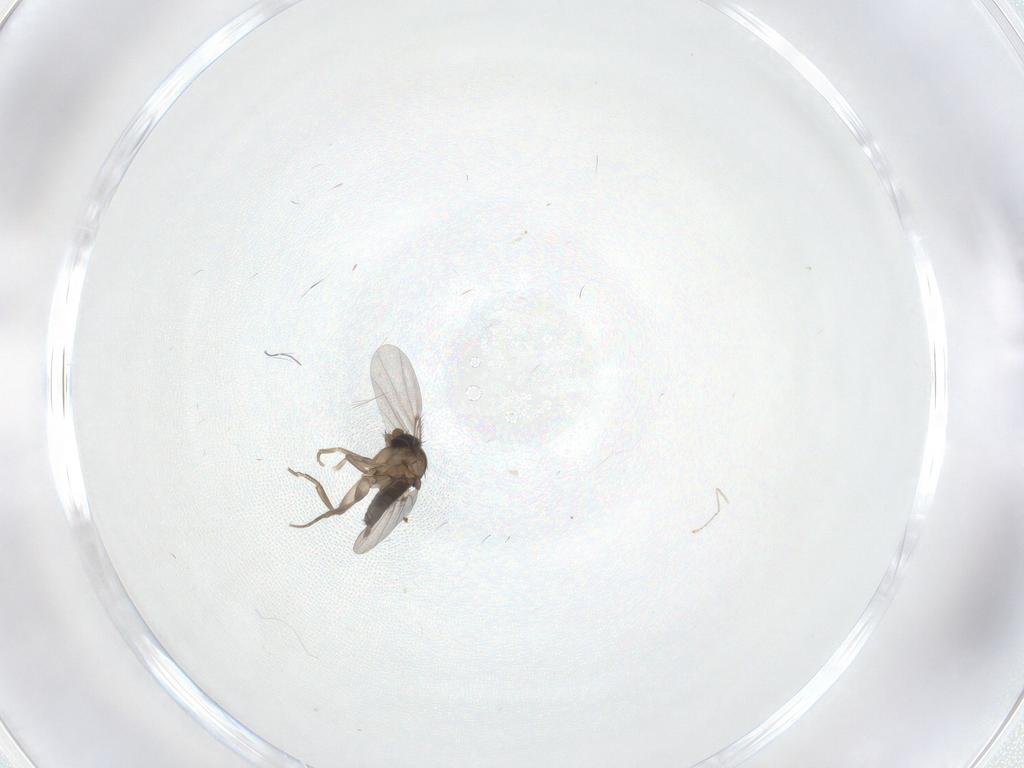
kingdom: Animalia
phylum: Arthropoda
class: Insecta
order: Diptera
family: Phoridae
